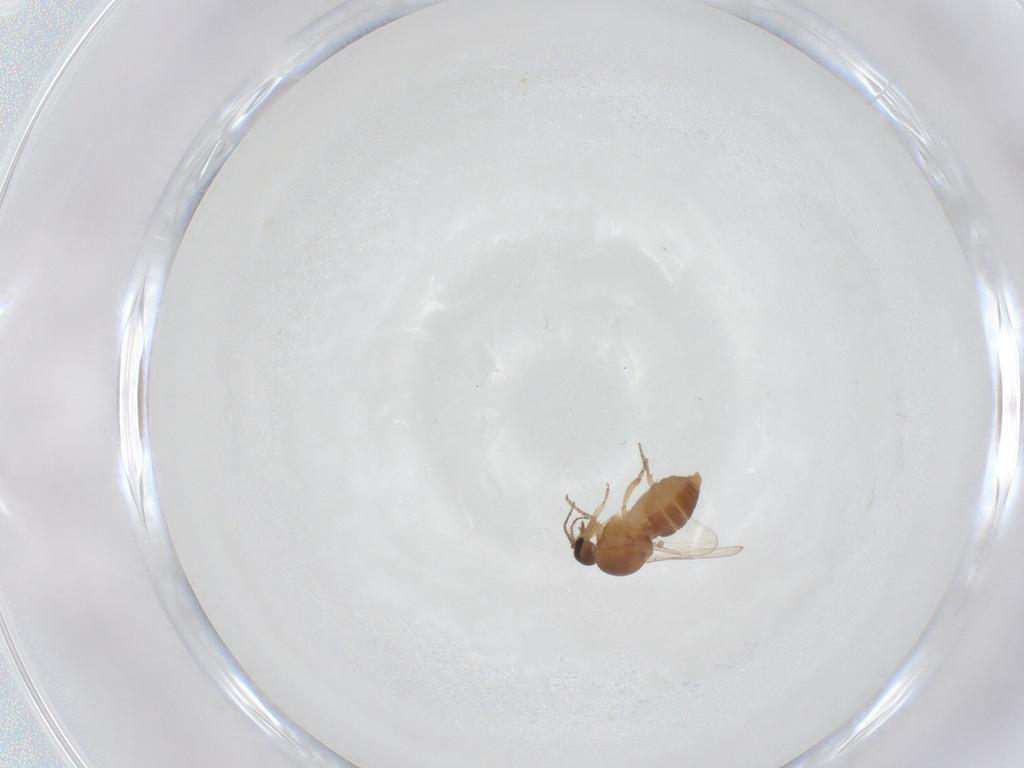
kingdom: Animalia
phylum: Arthropoda
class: Insecta
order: Diptera
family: Ceratopogonidae
